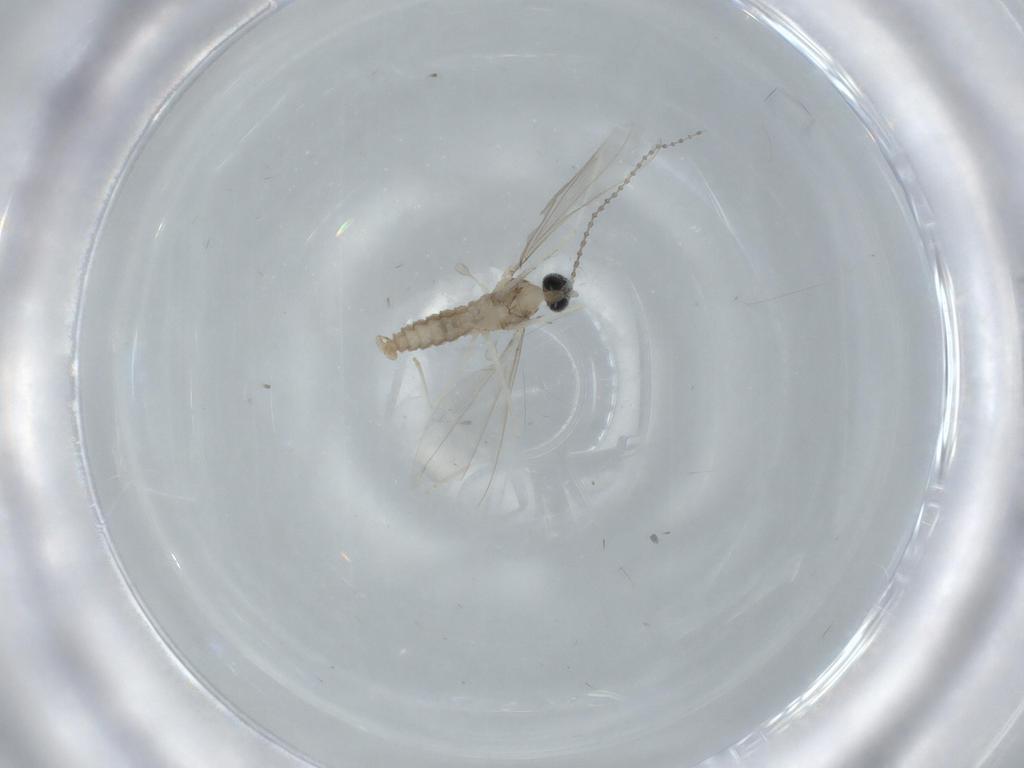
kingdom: Animalia
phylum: Arthropoda
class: Insecta
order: Diptera
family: Cecidomyiidae
